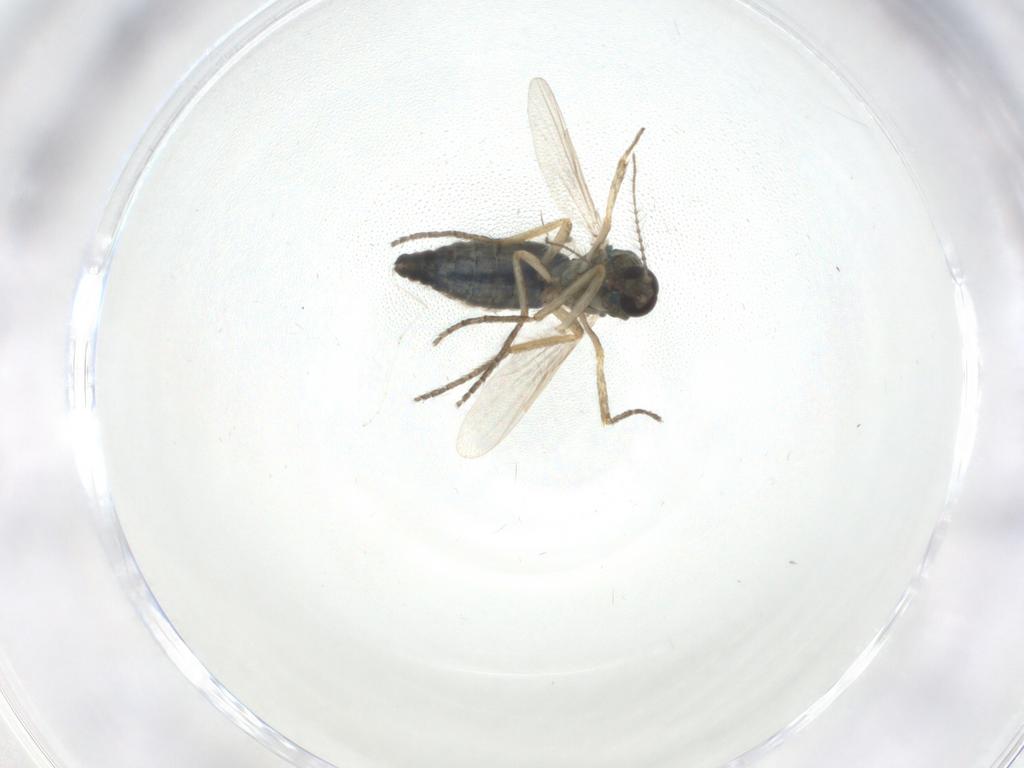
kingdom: Animalia
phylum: Arthropoda
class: Insecta
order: Diptera
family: Ceratopogonidae
